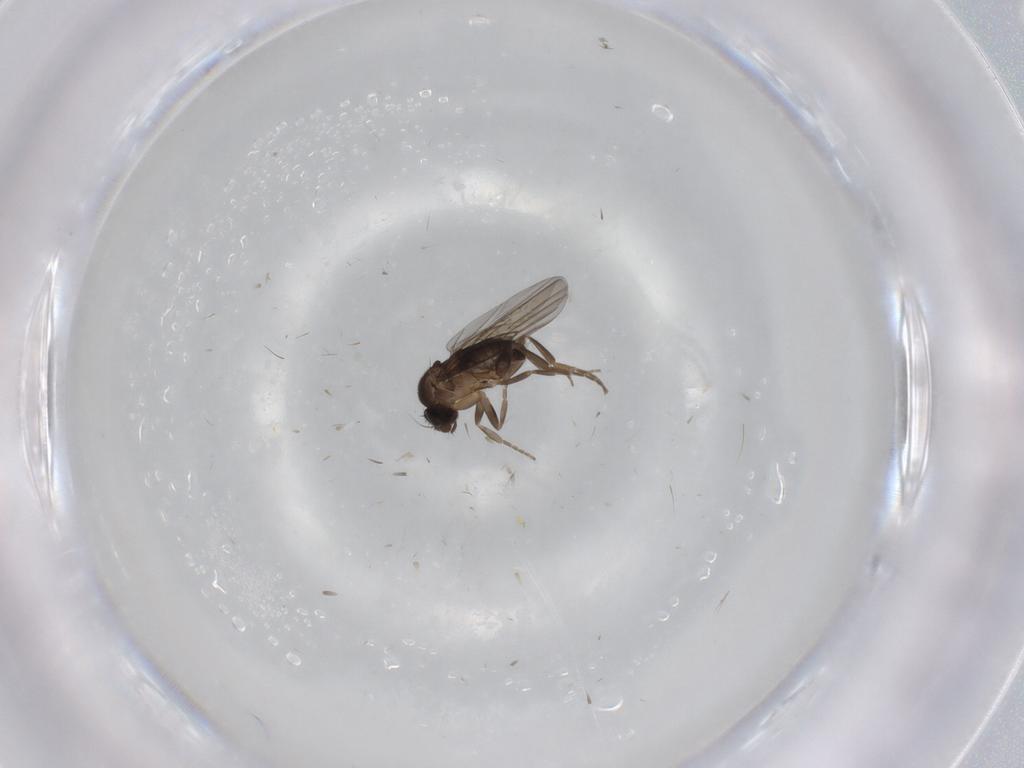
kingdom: Animalia
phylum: Arthropoda
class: Insecta
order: Diptera
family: Phoridae
